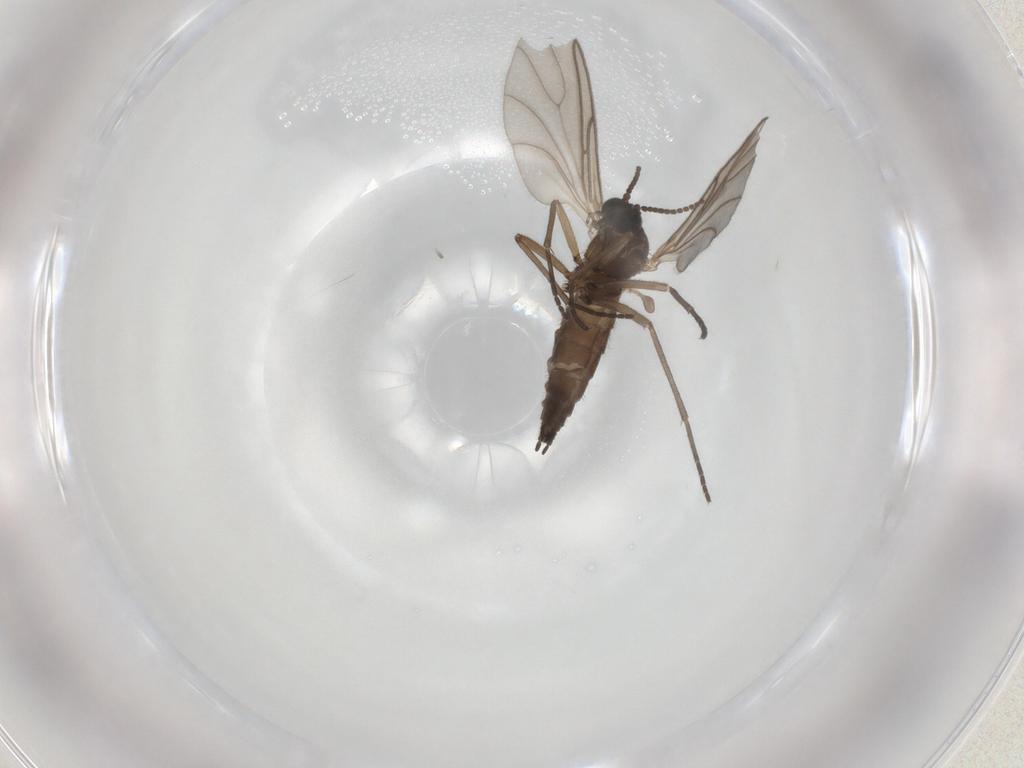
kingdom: Animalia
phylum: Arthropoda
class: Insecta
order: Diptera
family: Sciaridae
